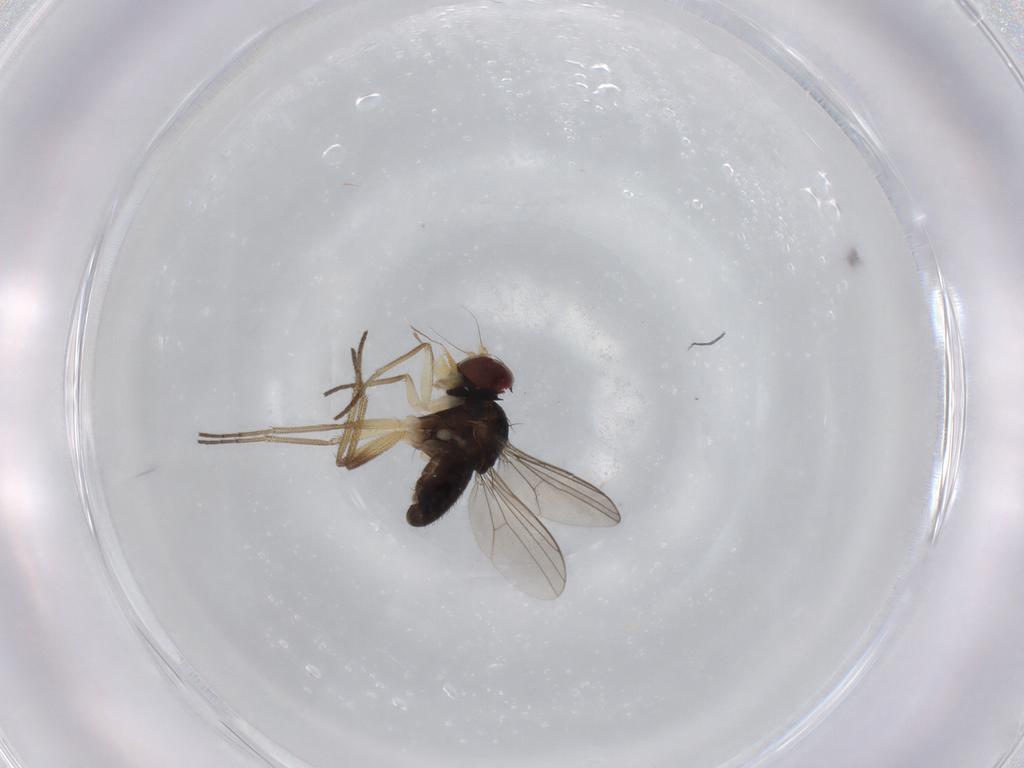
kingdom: Animalia
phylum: Arthropoda
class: Insecta
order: Diptera
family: Dolichopodidae
